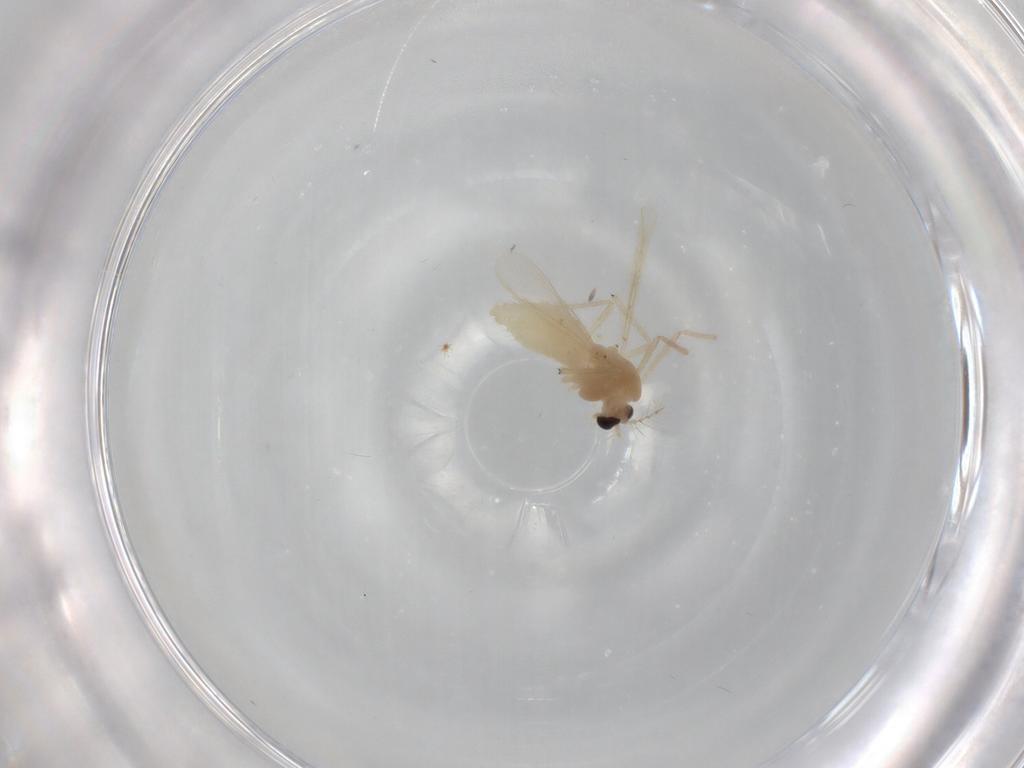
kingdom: Animalia
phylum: Arthropoda
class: Insecta
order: Diptera
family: Chironomidae
